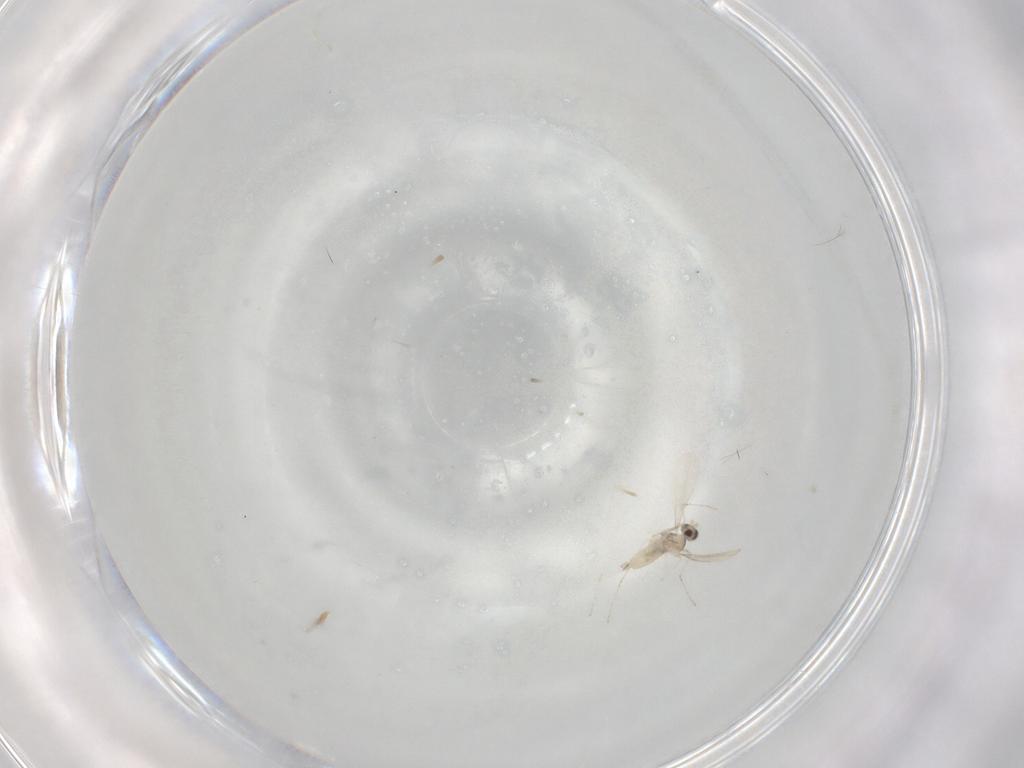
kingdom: Animalia
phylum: Arthropoda
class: Insecta
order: Diptera
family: Cecidomyiidae
